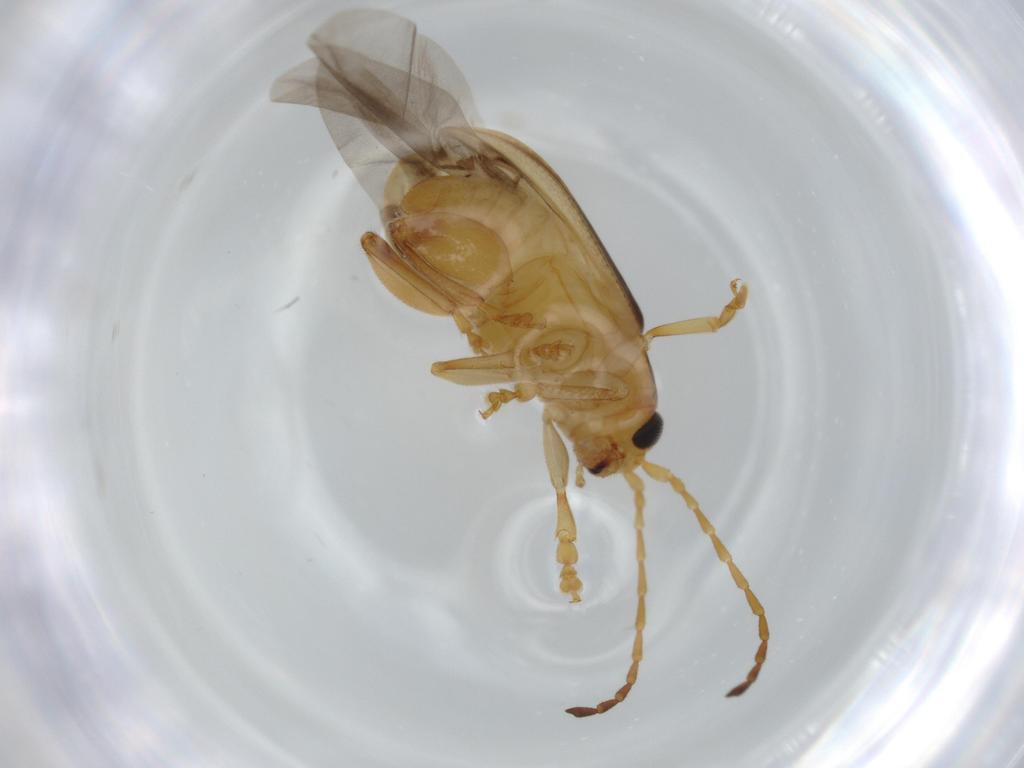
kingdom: Animalia
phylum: Arthropoda
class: Insecta
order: Coleoptera
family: Chrysomelidae
